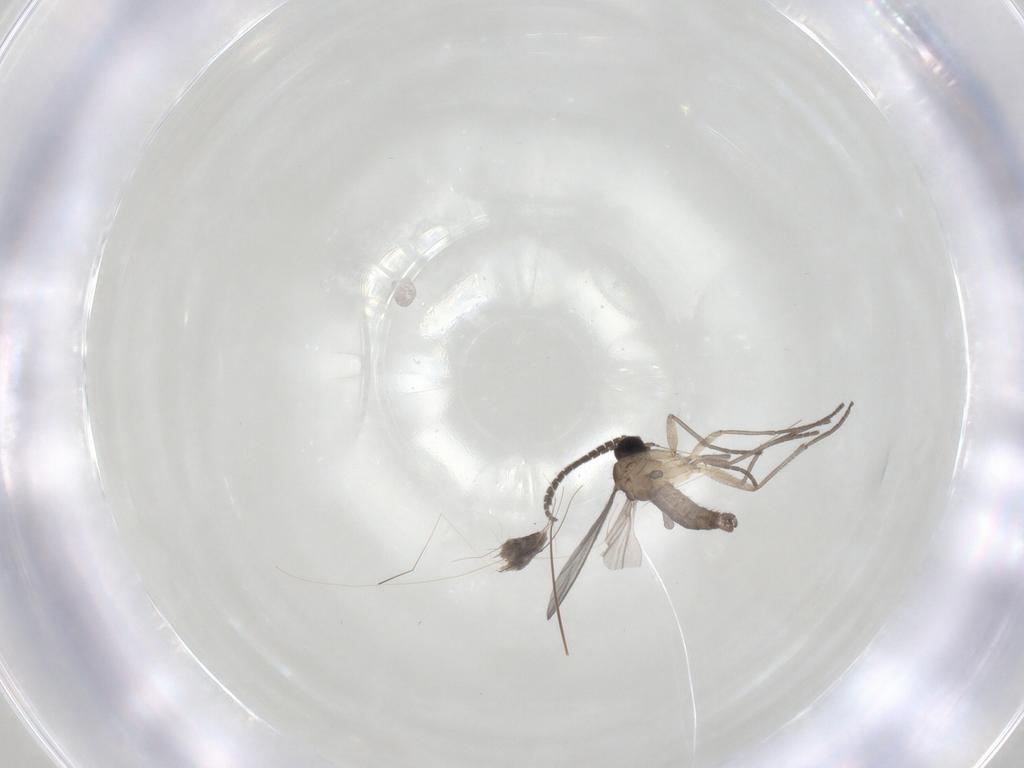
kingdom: Animalia
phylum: Arthropoda
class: Insecta
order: Diptera
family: Sciaridae
